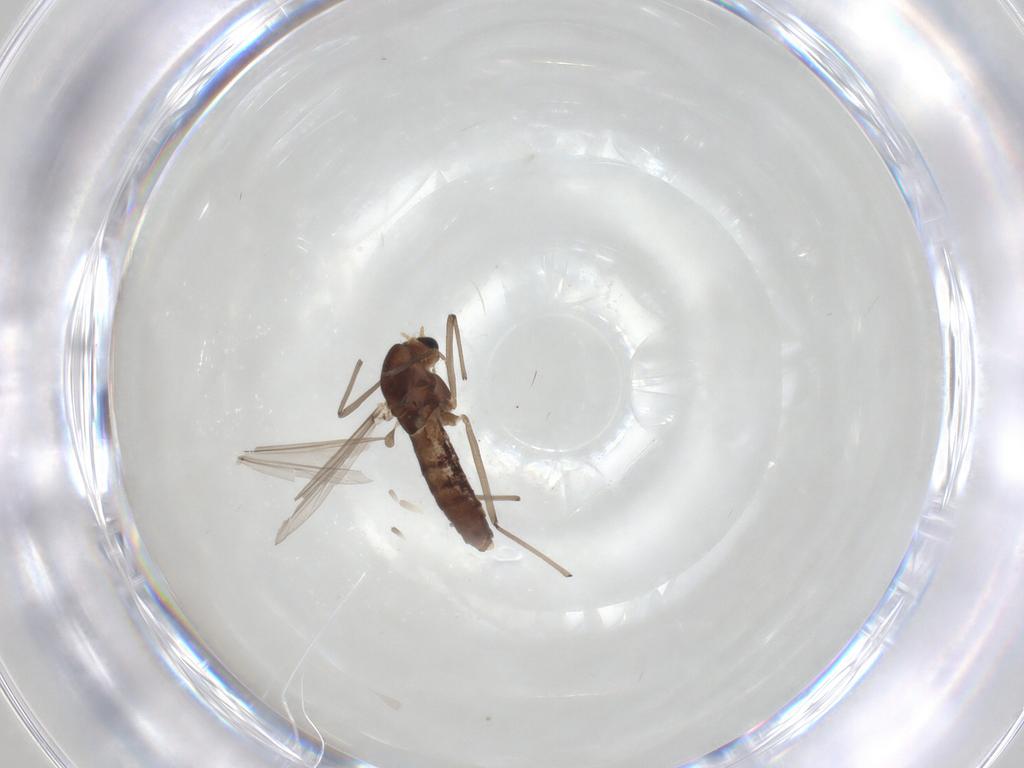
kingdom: Animalia
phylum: Arthropoda
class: Insecta
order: Diptera
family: Chironomidae
